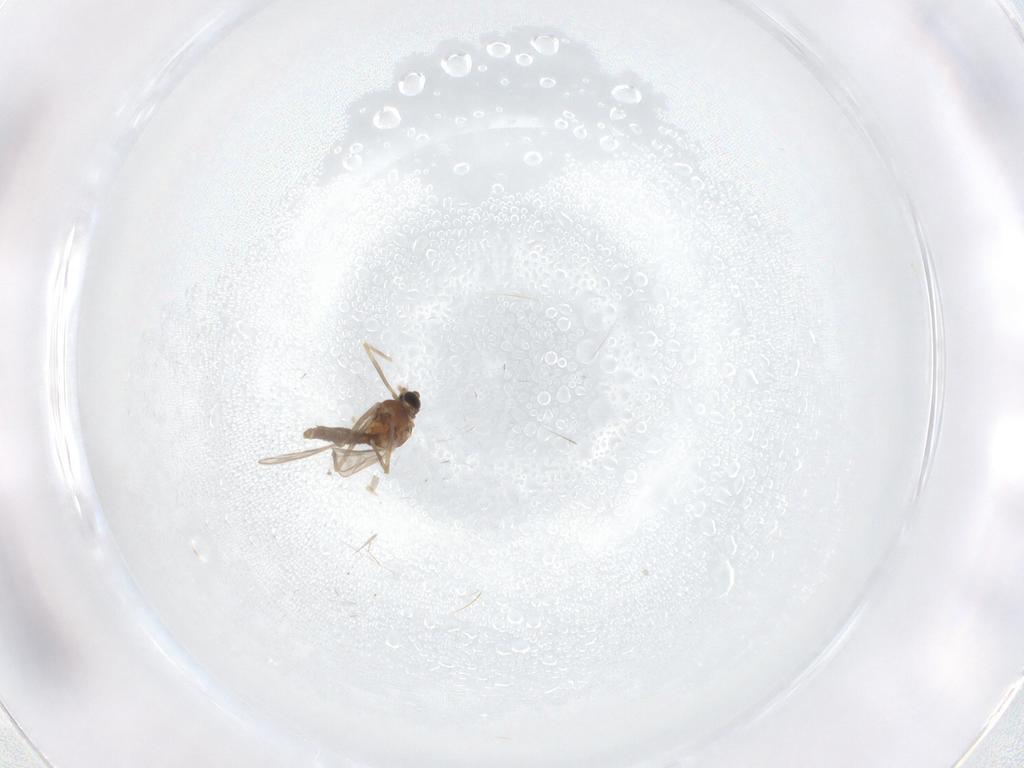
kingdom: Animalia
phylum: Arthropoda
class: Insecta
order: Diptera
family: Chironomidae
